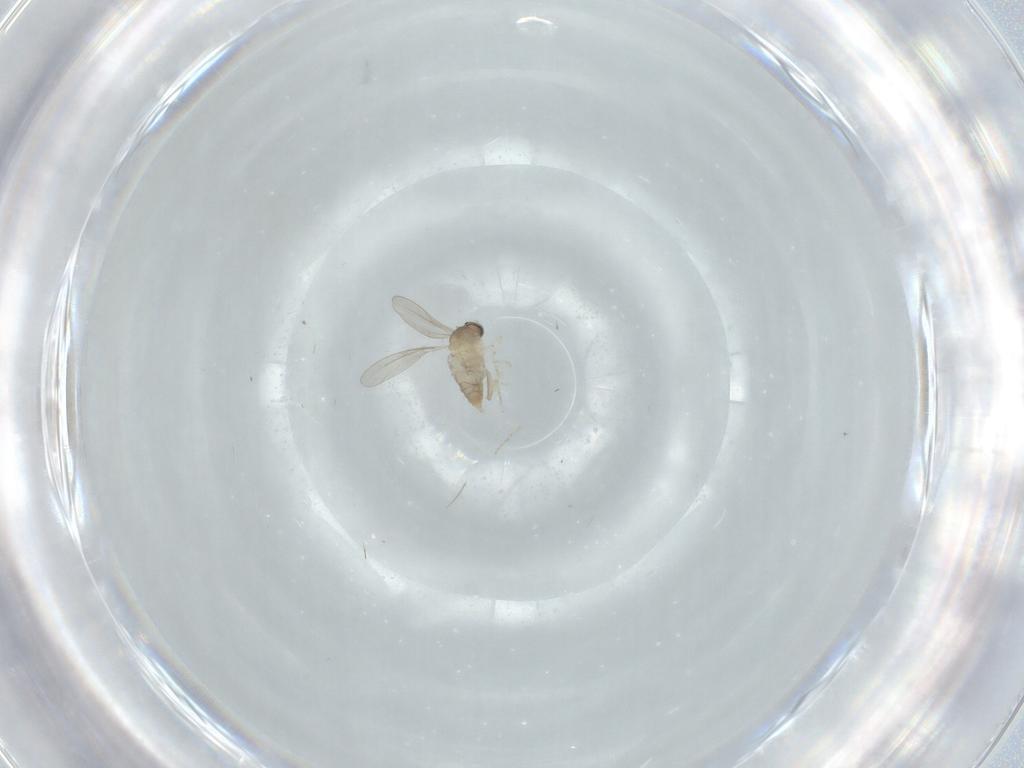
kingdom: Animalia
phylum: Arthropoda
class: Insecta
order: Diptera
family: Cecidomyiidae
